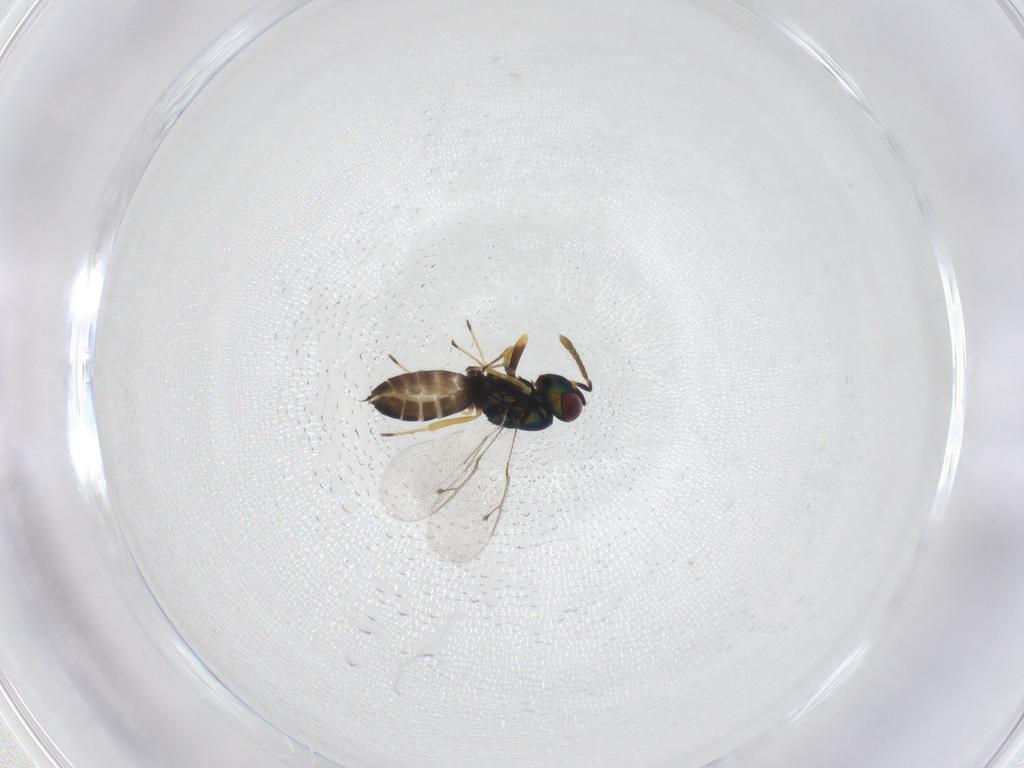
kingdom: Animalia
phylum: Arthropoda
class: Insecta
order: Hymenoptera
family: Pteromalidae
